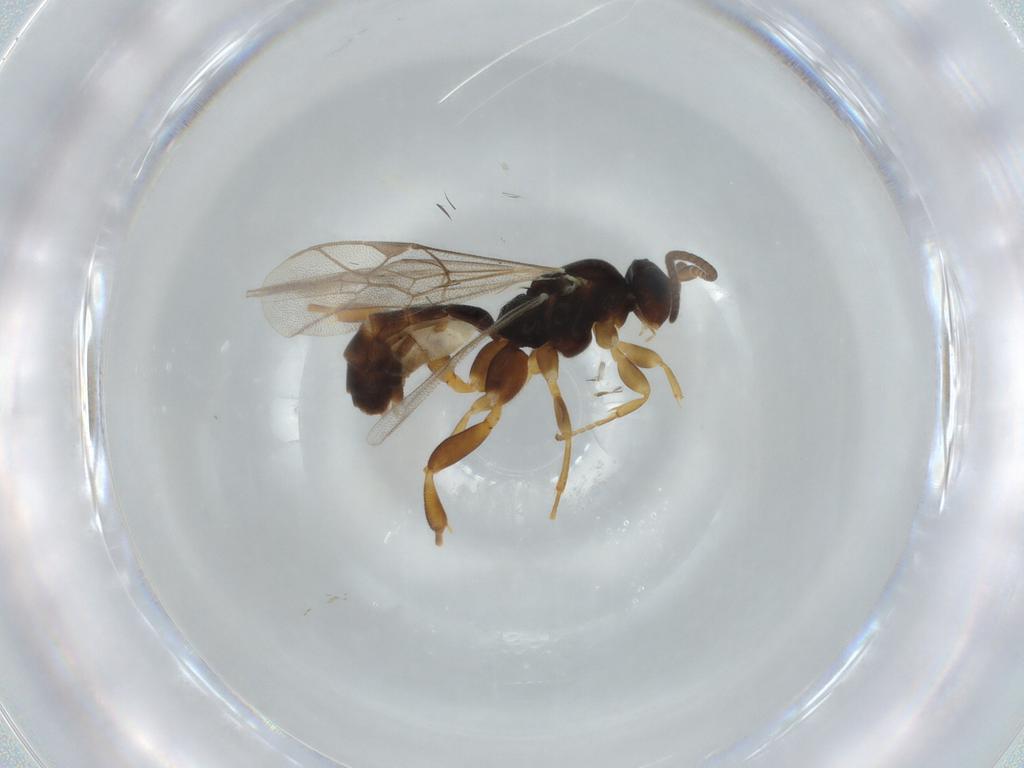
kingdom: Animalia
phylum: Arthropoda
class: Insecta
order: Hymenoptera
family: Ichneumonidae
